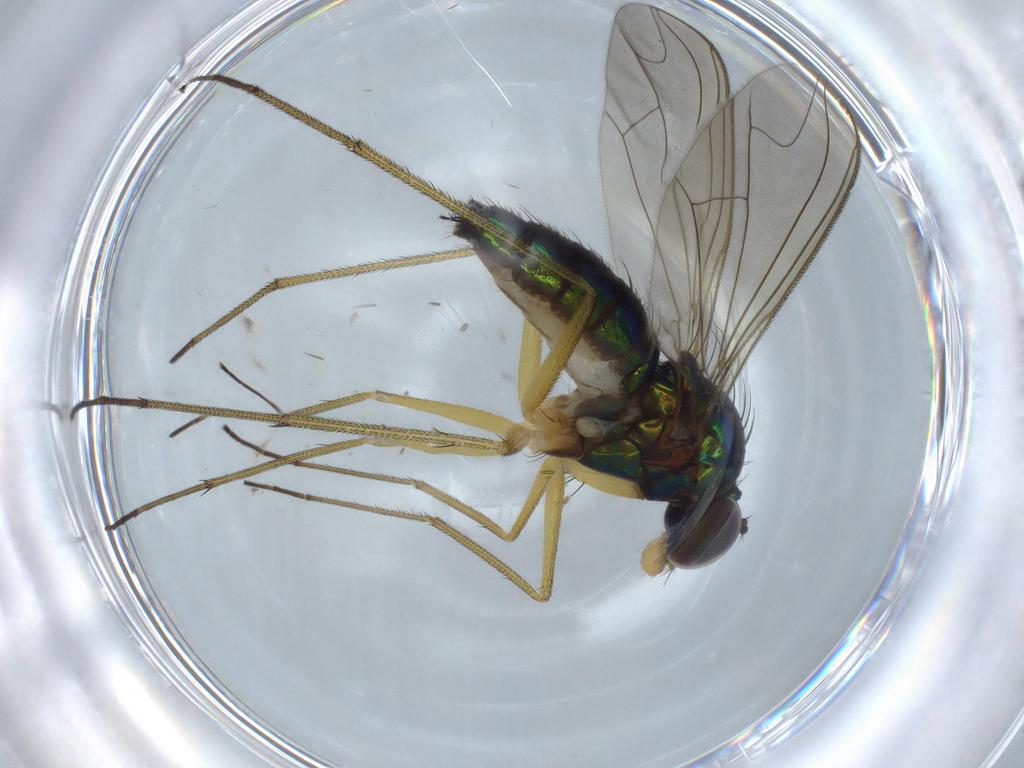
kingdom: Animalia
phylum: Arthropoda
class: Insecta
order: Diptera
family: Dolichopodidae
